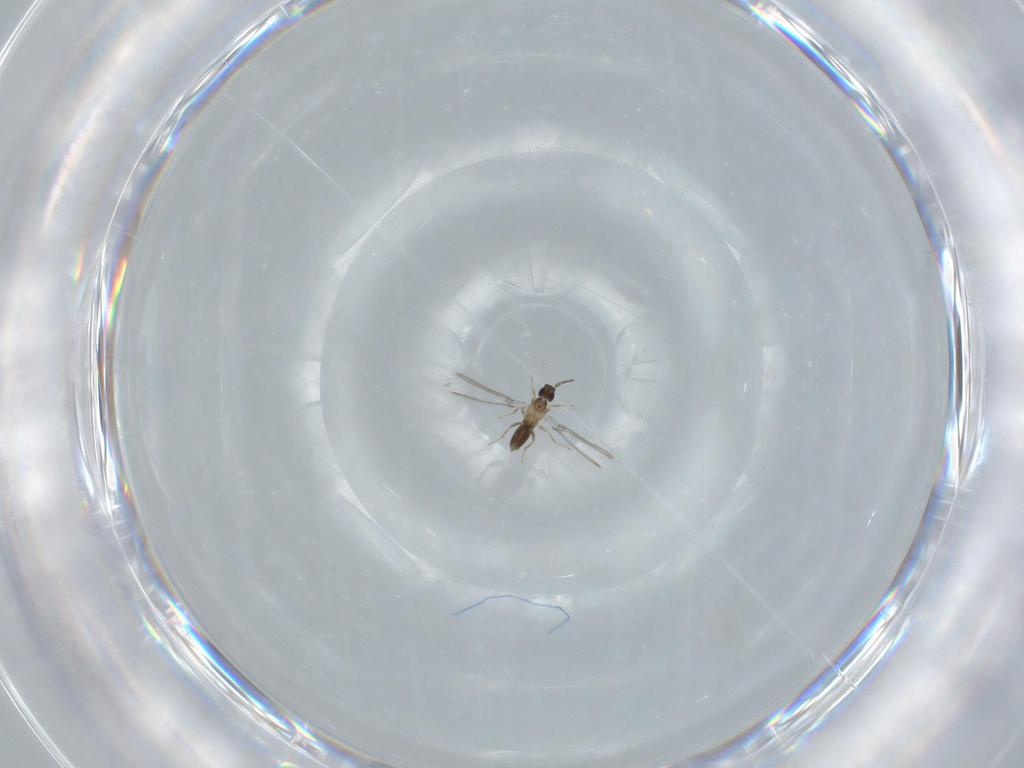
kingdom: Animalia
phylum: Arthropoda
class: Insecta
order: Hymenoptera
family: Mymaridae
